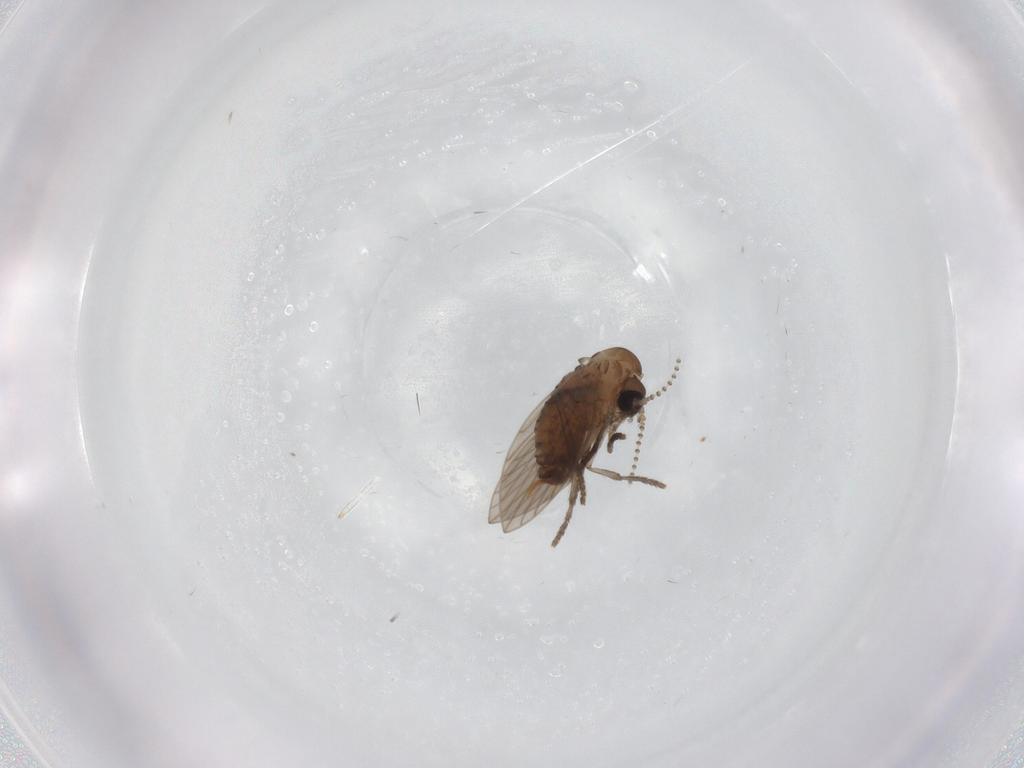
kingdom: Animalia
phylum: Arthropoda
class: Insecta
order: Diptera
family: Psychodidae
